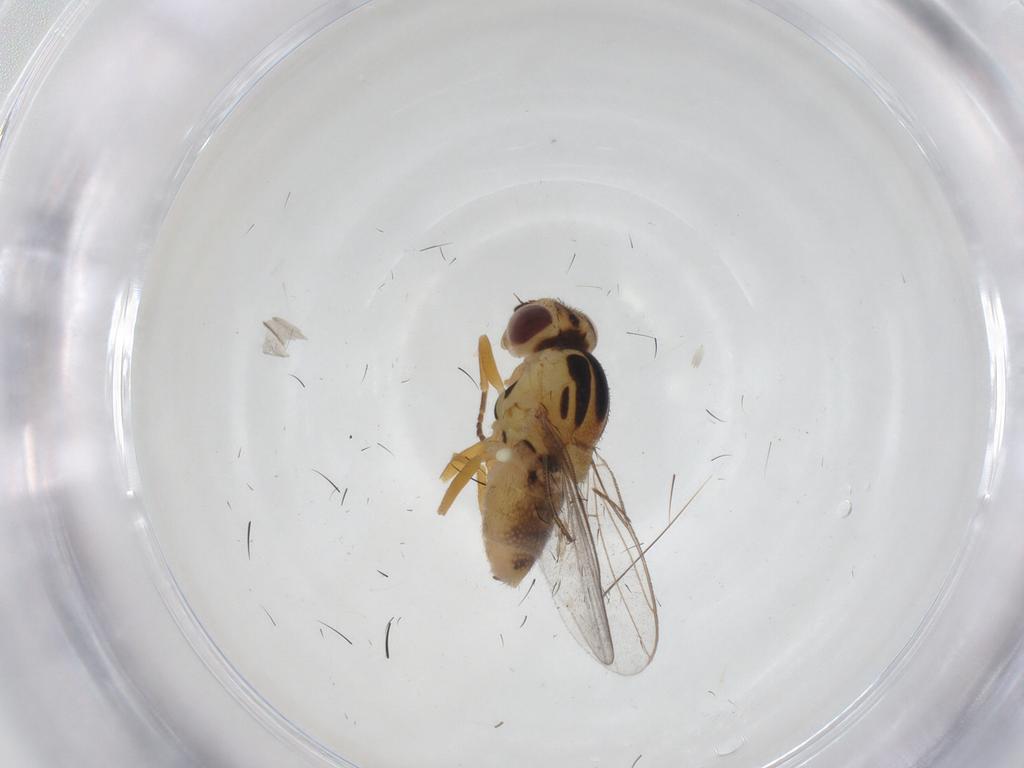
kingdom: Animalia
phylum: Arthropoda
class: Insecta
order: Diptera
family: Chloropidae
